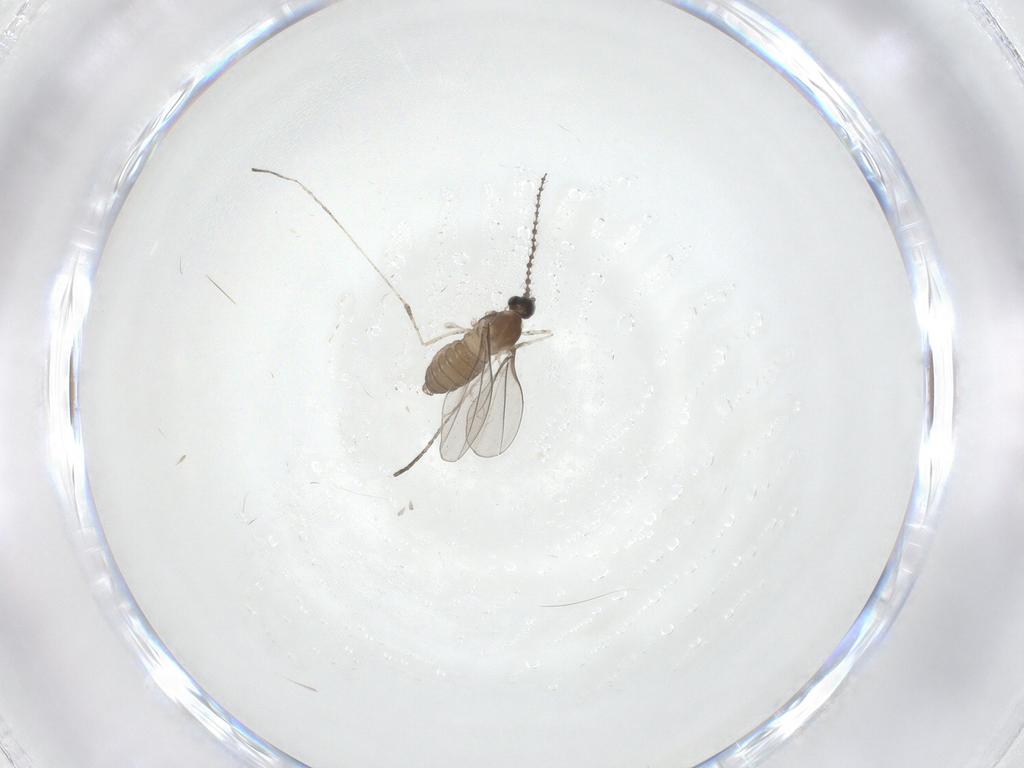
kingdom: Animalia
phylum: Arthropoda
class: Insecta
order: Diptera
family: Cecidomyiidae
